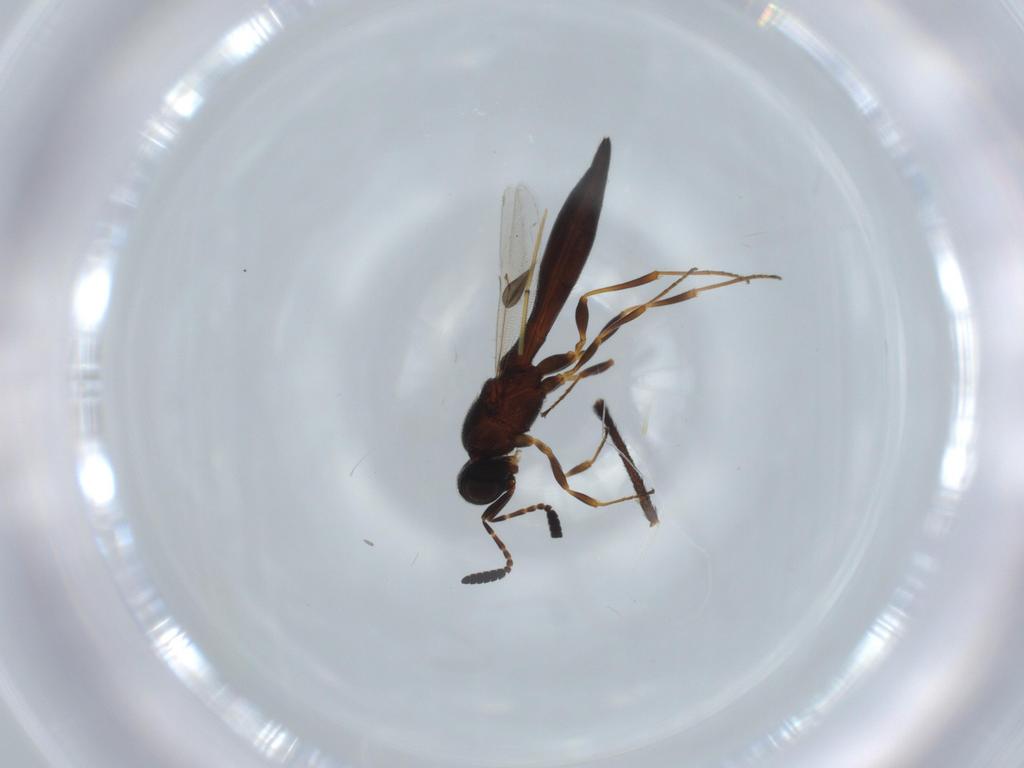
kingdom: Animalia
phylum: Arthropoda
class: Insecta
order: Hymenoptera
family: Scelionidae
